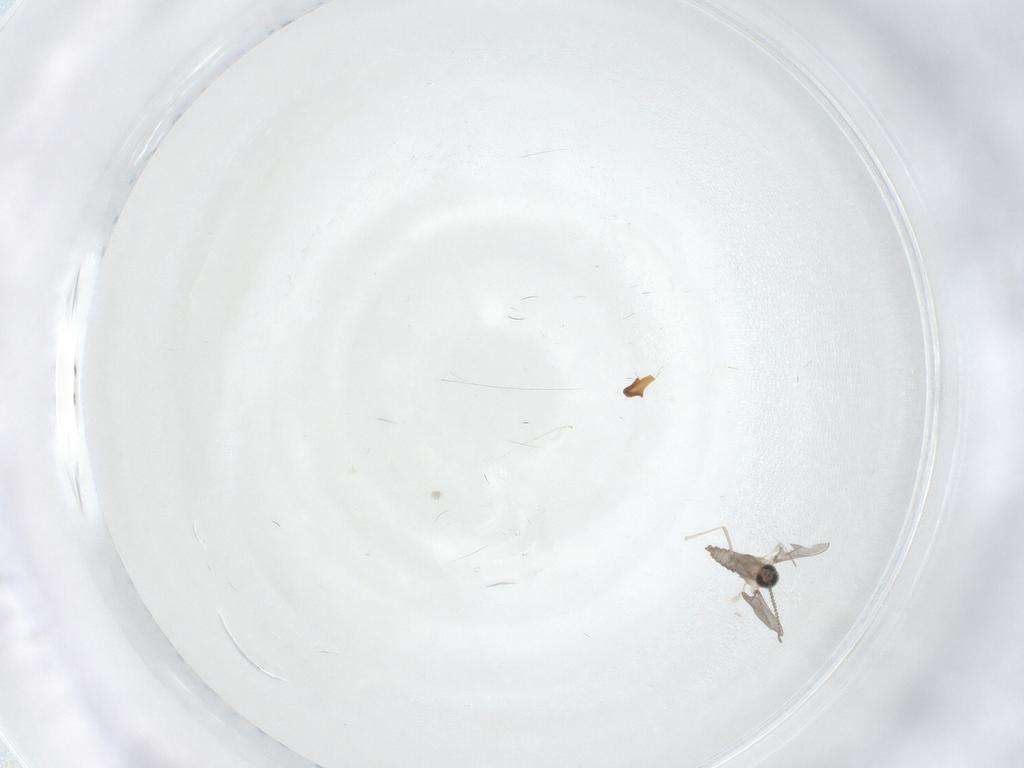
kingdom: Animalia
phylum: Arthropoda
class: Insecta
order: Diptera
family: Cecidomyiidae
